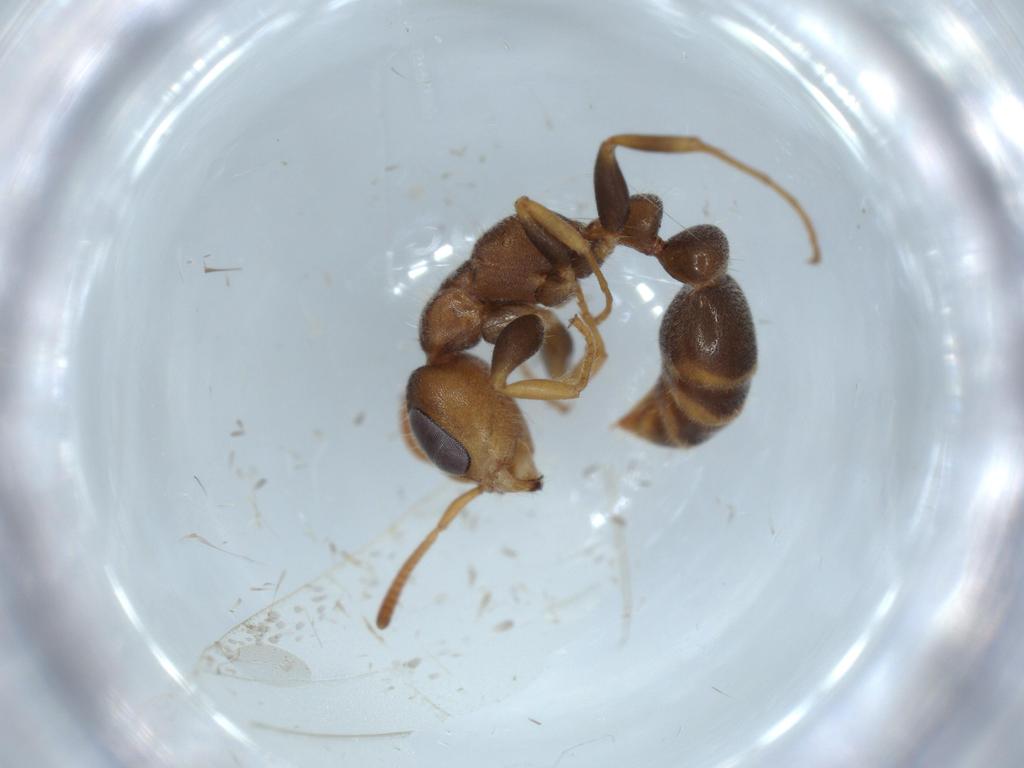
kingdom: Animalia
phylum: Arthropoda
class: Insecta
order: Hymenoptera
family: Formicidae
